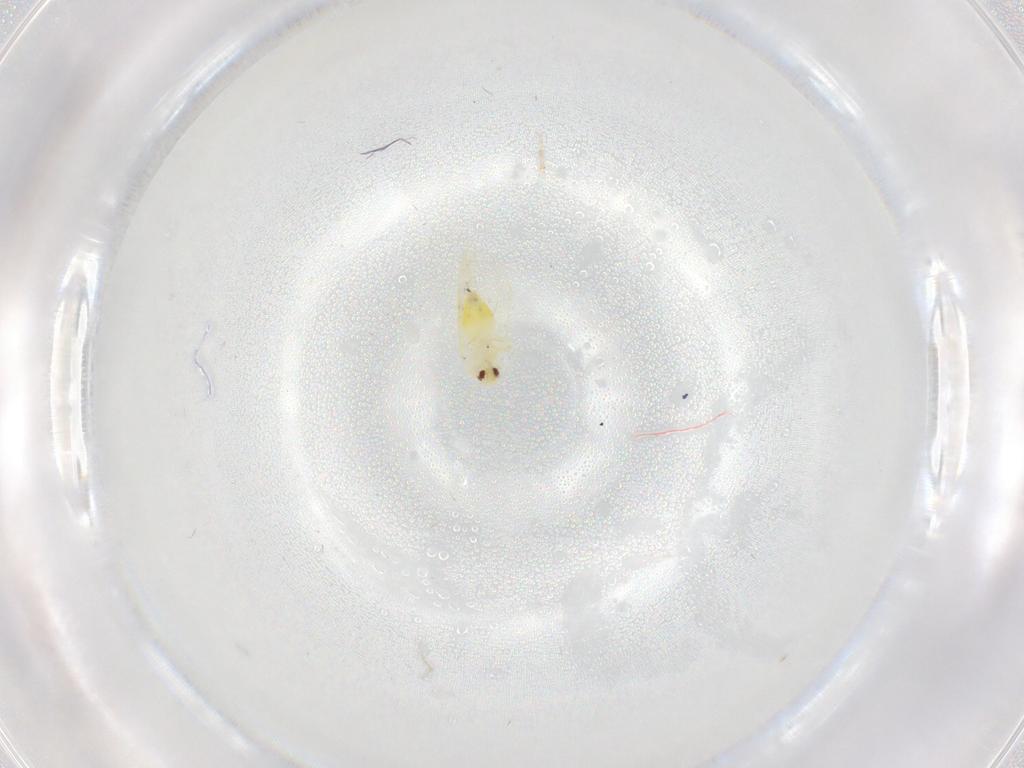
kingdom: Animalia
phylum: Arthropoda
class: Insecta
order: Hemiptera
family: Aleyrodidae
